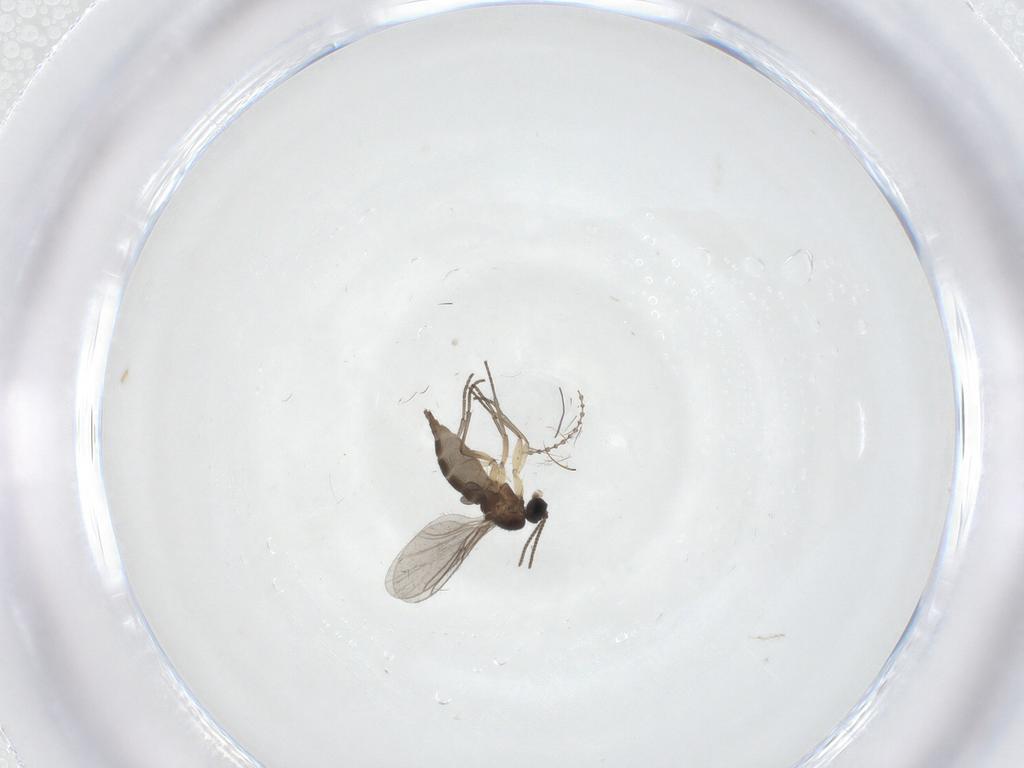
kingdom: Animalia
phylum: Arthropoda
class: Insecta
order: Diptera
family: Sciaridae
